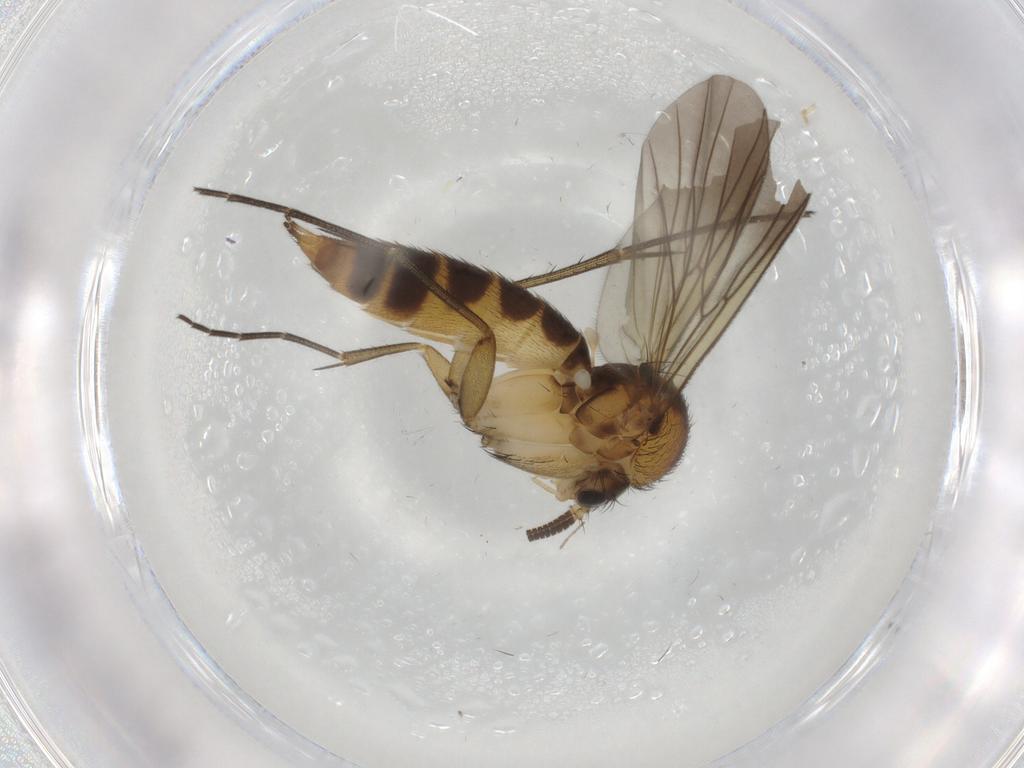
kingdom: Animalia
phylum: Arthropoda
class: Insecta
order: Diptera
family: Mycetophilidae
